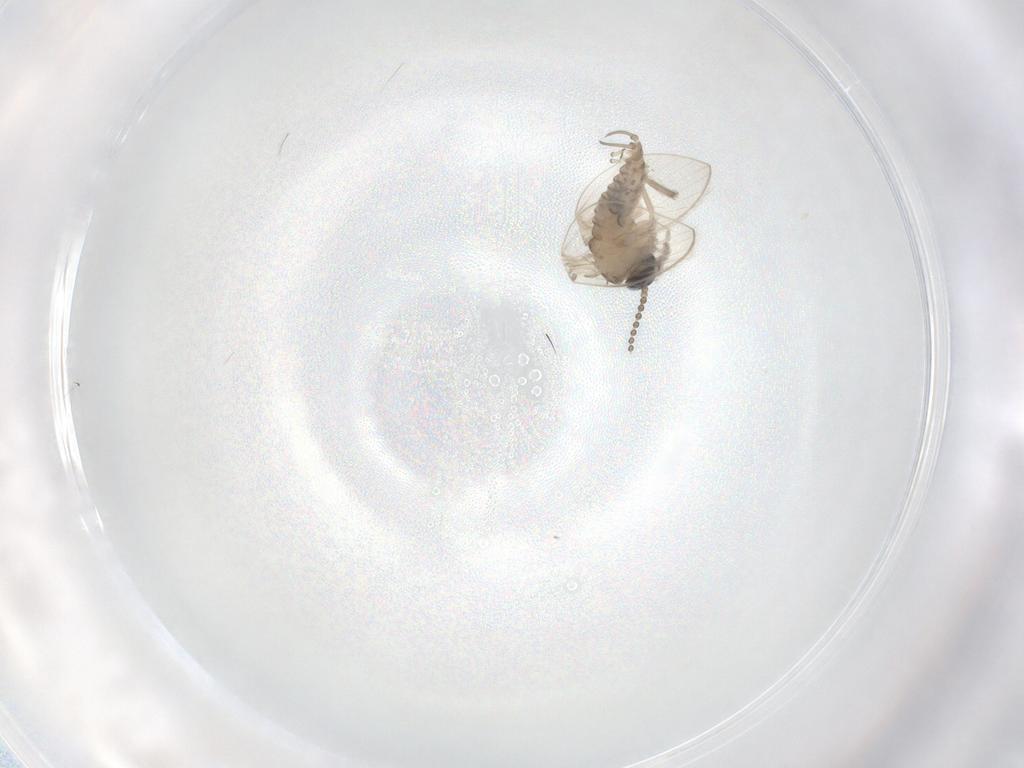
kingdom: Animalia
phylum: Arthropoda
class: Insecta
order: Diptera
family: Psychodidae
